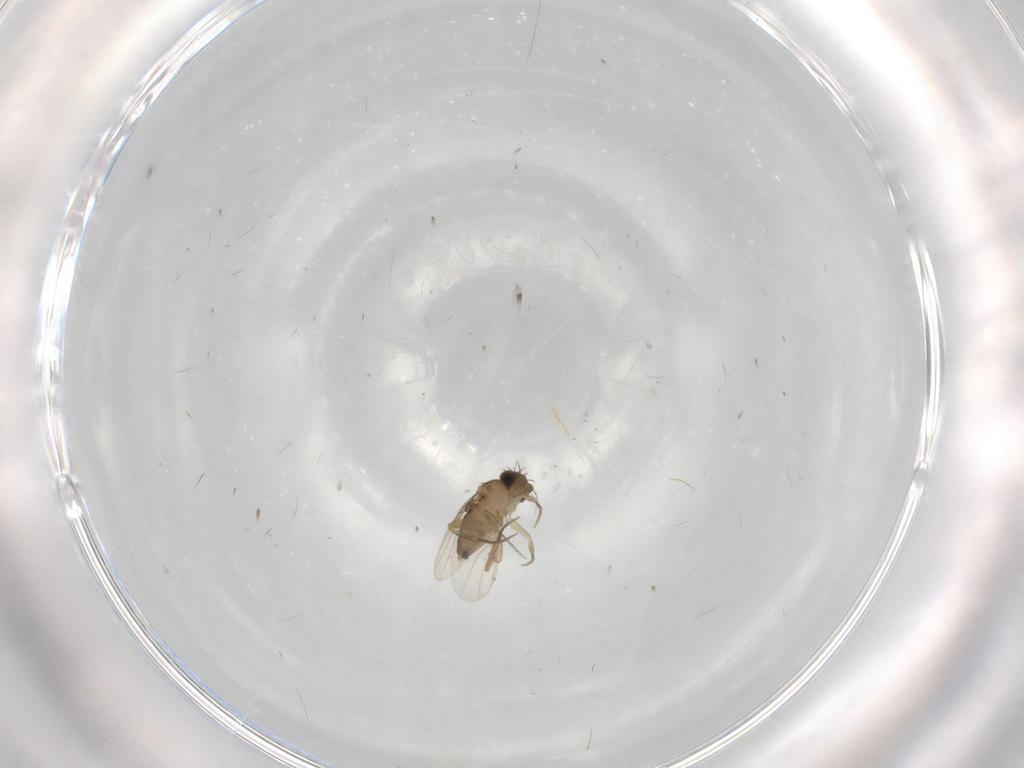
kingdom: Animalia
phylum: Arthropoda
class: Insecta
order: Diptera
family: Phoridae
